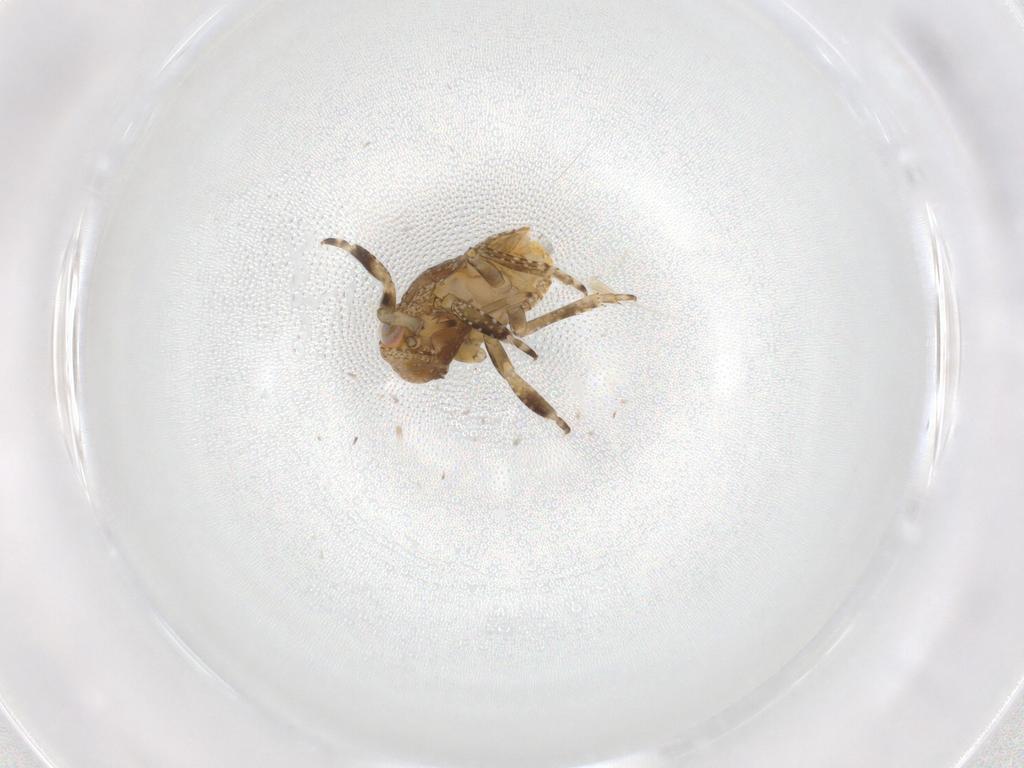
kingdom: Animalia
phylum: Arthropoda
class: Insecta
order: Hemiptera
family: Fulgoroidea_incertae_sedis
